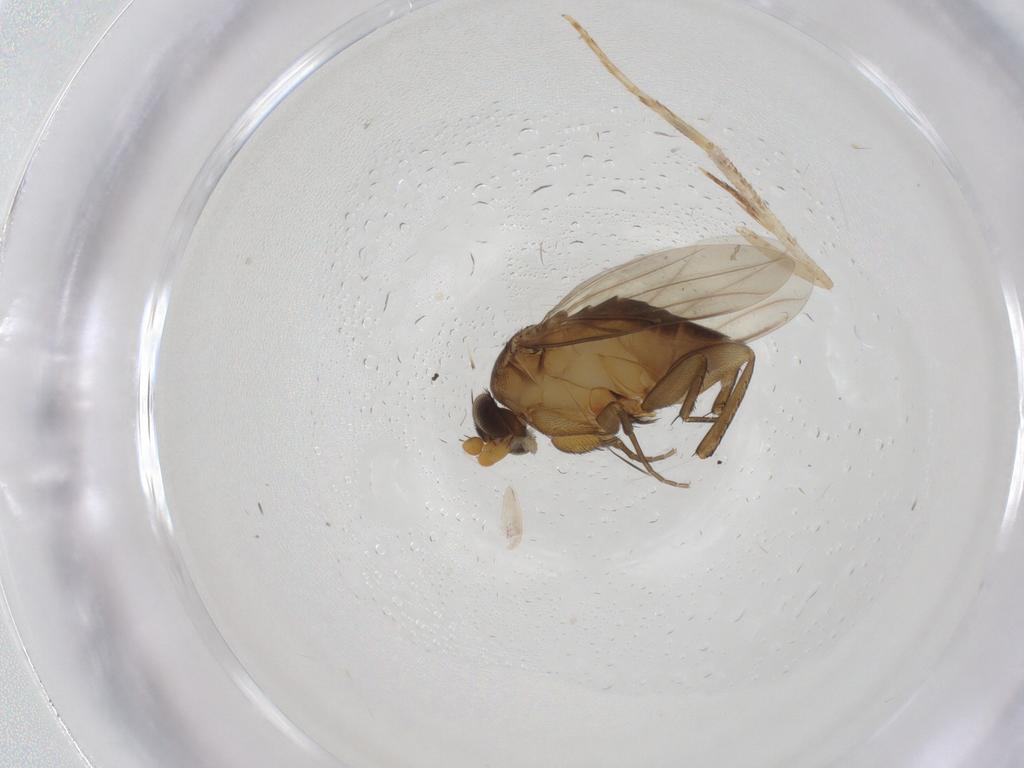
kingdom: Animalia
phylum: Arthropoda
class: Insecta
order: Diptera
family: Phoridae
